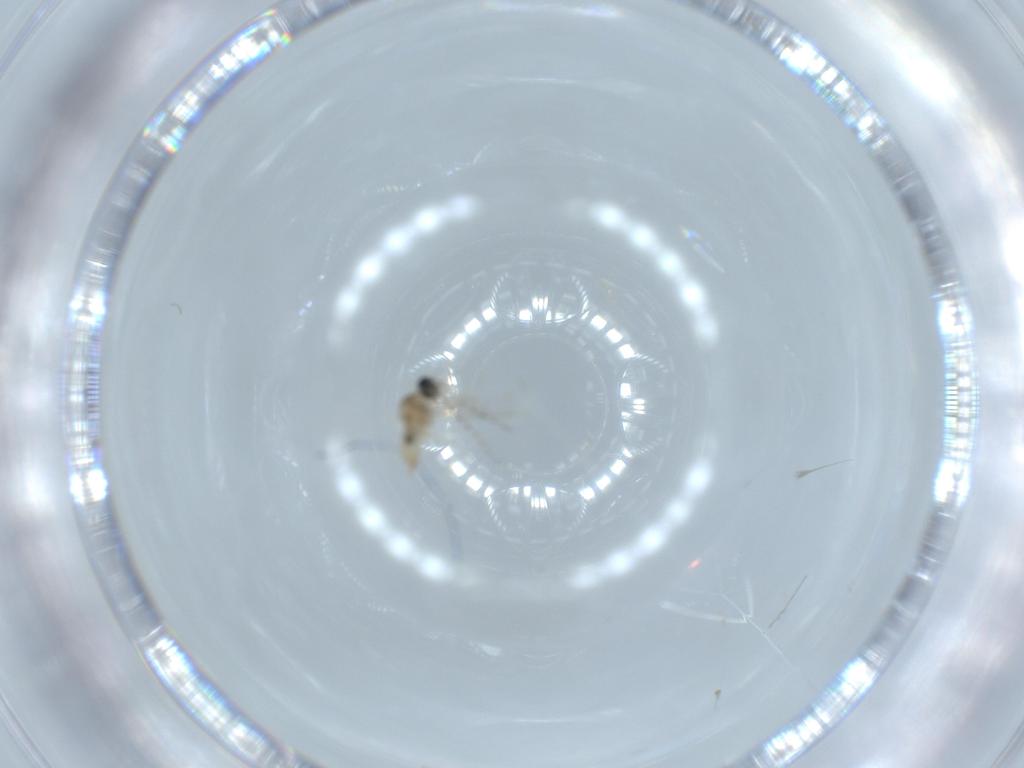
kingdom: Animalia
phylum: Arthropoda
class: Insecta
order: Diptera
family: Cecidomyiidae
